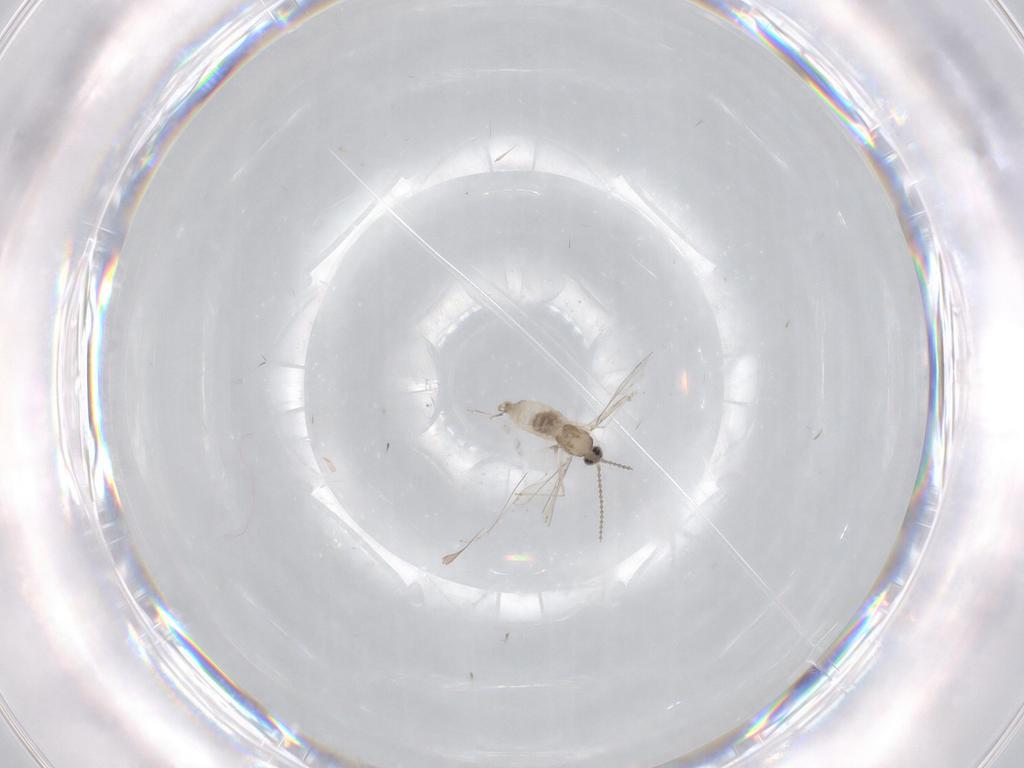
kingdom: Animalia
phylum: Arthropoda
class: Insecta
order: Diptera
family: Cecidomyiidae
